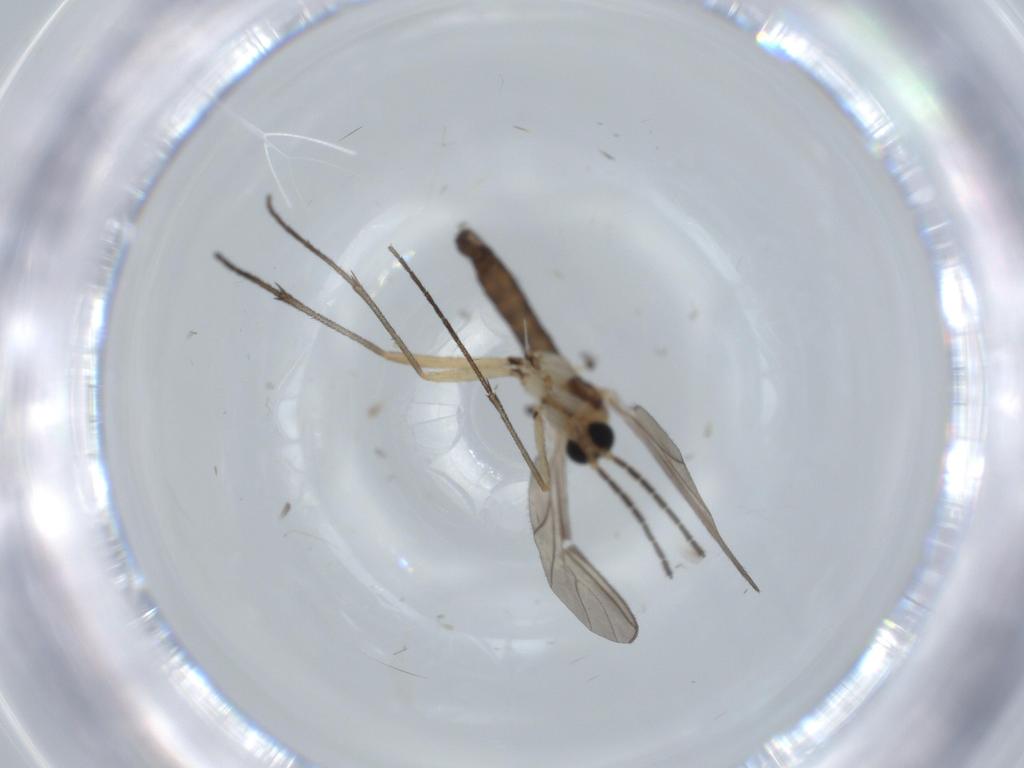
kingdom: Animalia
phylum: Arthropoda
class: Insecta
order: Diptera
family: Sciaridae
